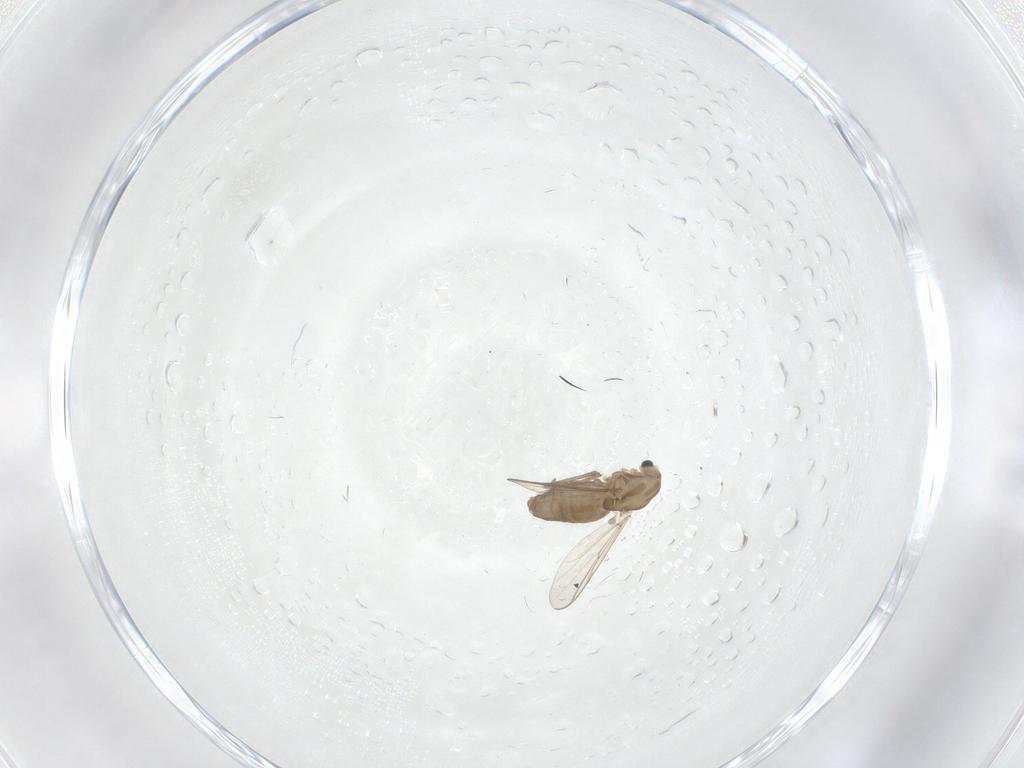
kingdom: Animalia
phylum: Arthropoda
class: Insecta
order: Diptera
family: Chironomidae
